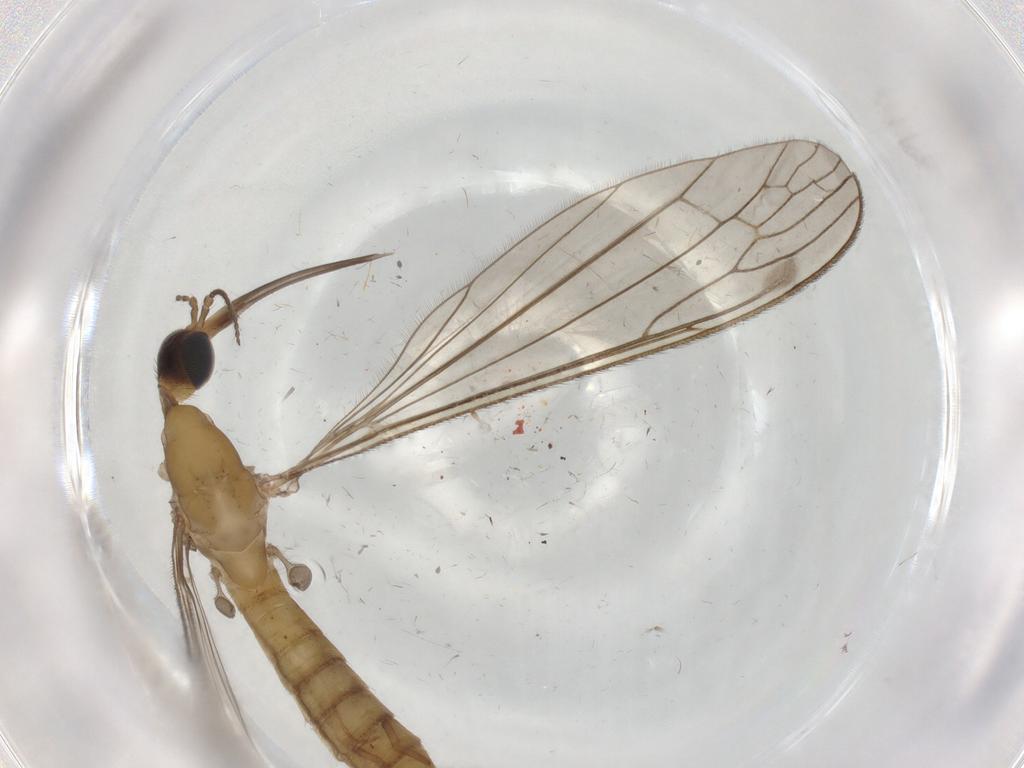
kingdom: Animalia
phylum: Arthropoda
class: Insecta
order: Diptera
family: Chironomidae
